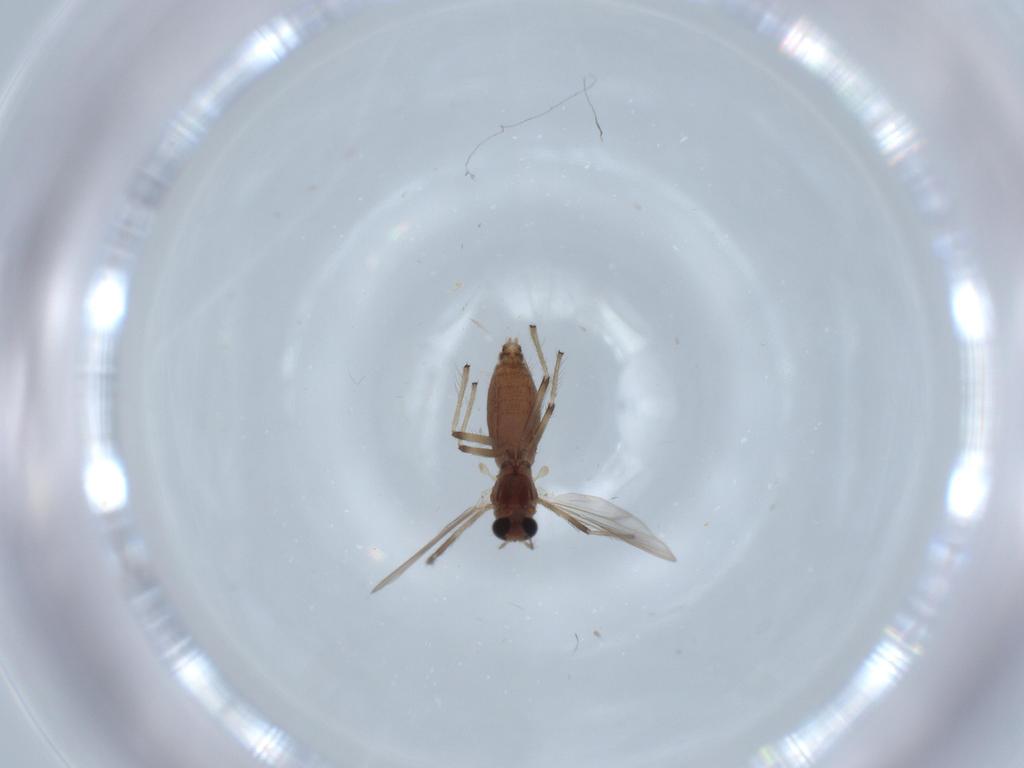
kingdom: Animalia
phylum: Arthropoda
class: Insecta
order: Diptera
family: Chironomidae
